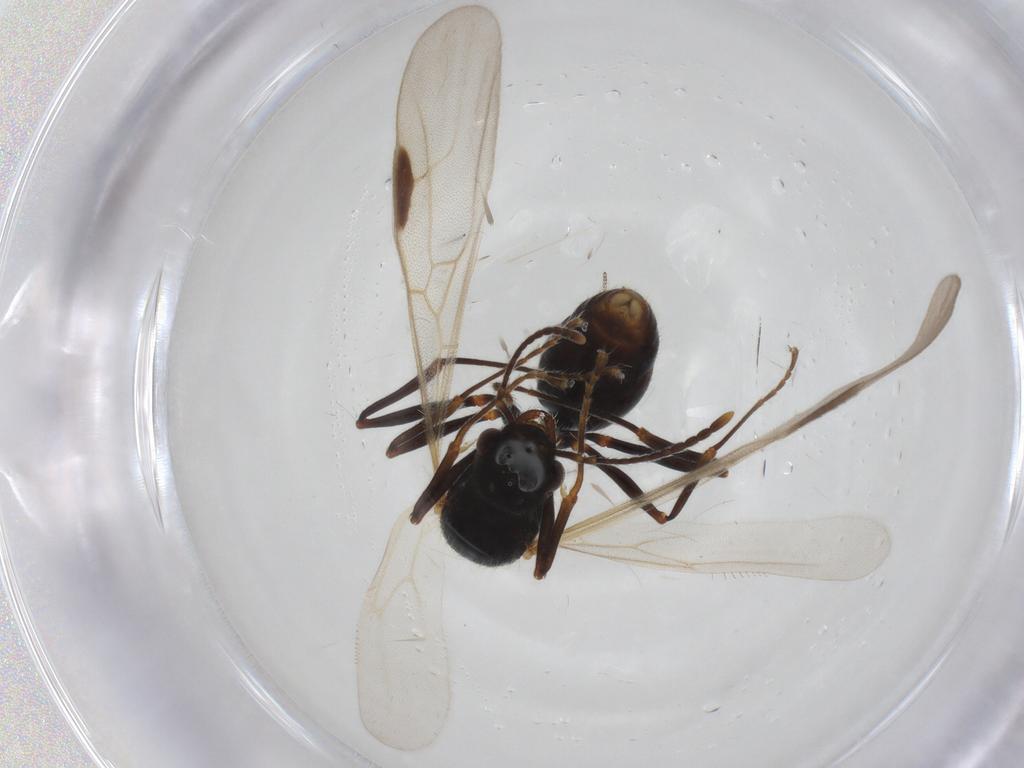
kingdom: Animalia
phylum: Arthropoda
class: Insecta
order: Hymenoptera
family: Formicidae
